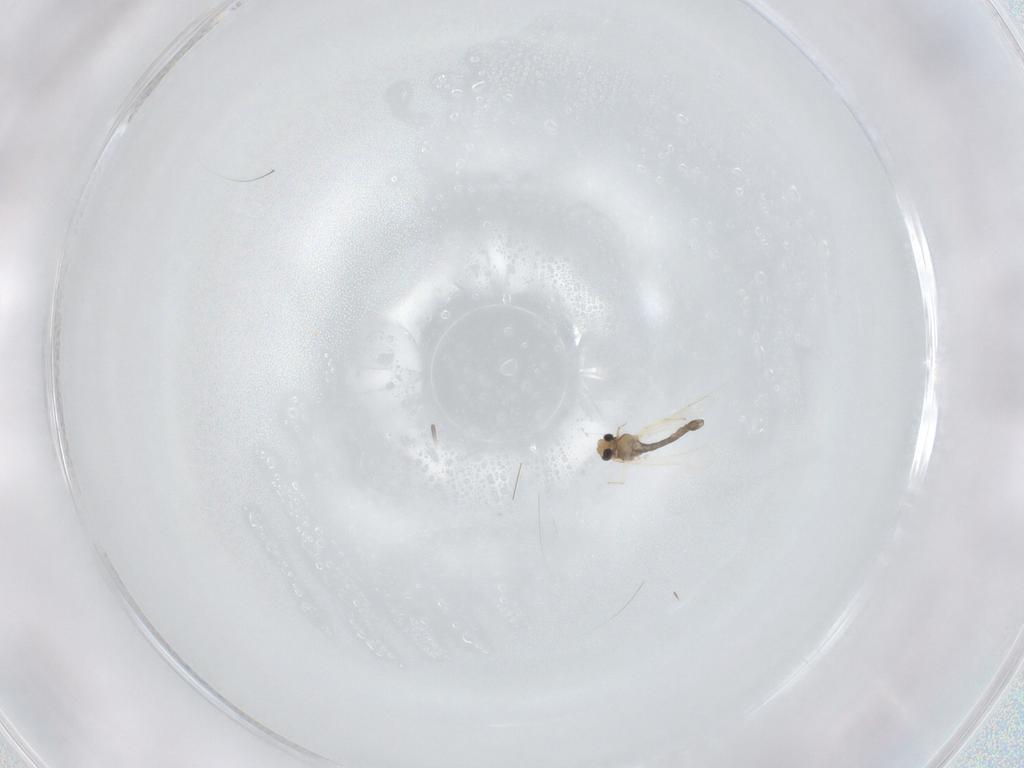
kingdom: Animalia
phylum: Arthropoda
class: Insecta
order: Diptera
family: Chironomidae
